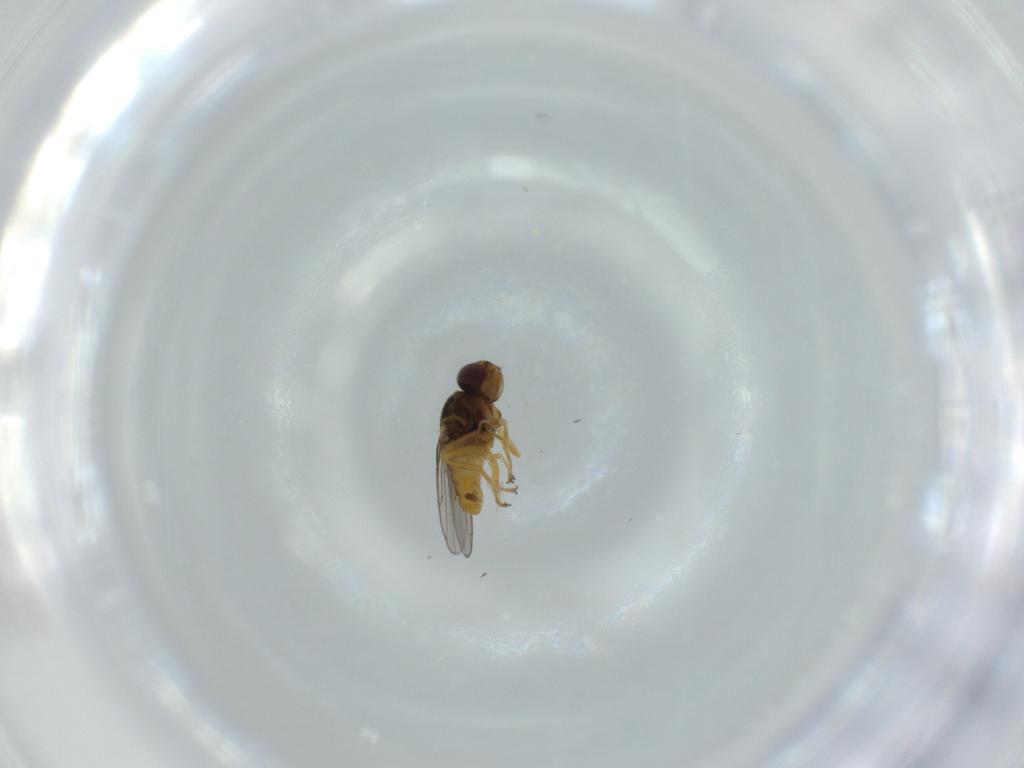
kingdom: Animalia
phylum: Arthropoda
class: Insecta
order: Diptera
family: Chloropidae
